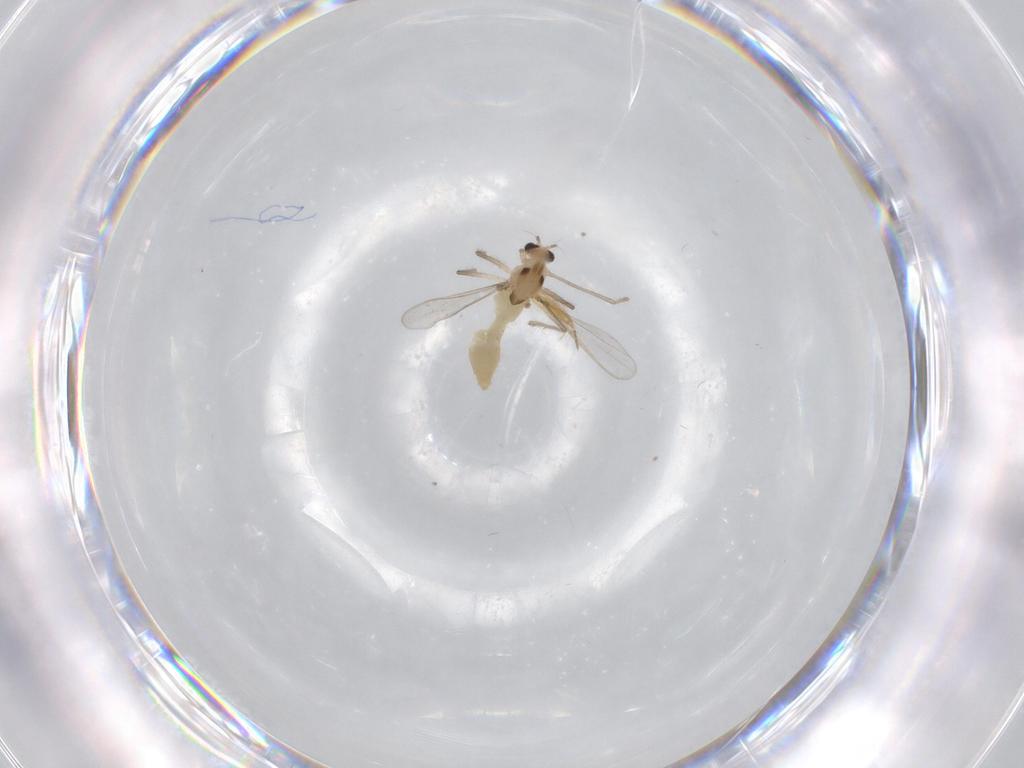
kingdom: Animalia
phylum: Arthropoda
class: Insecta
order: Diptera
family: Chironomidae
